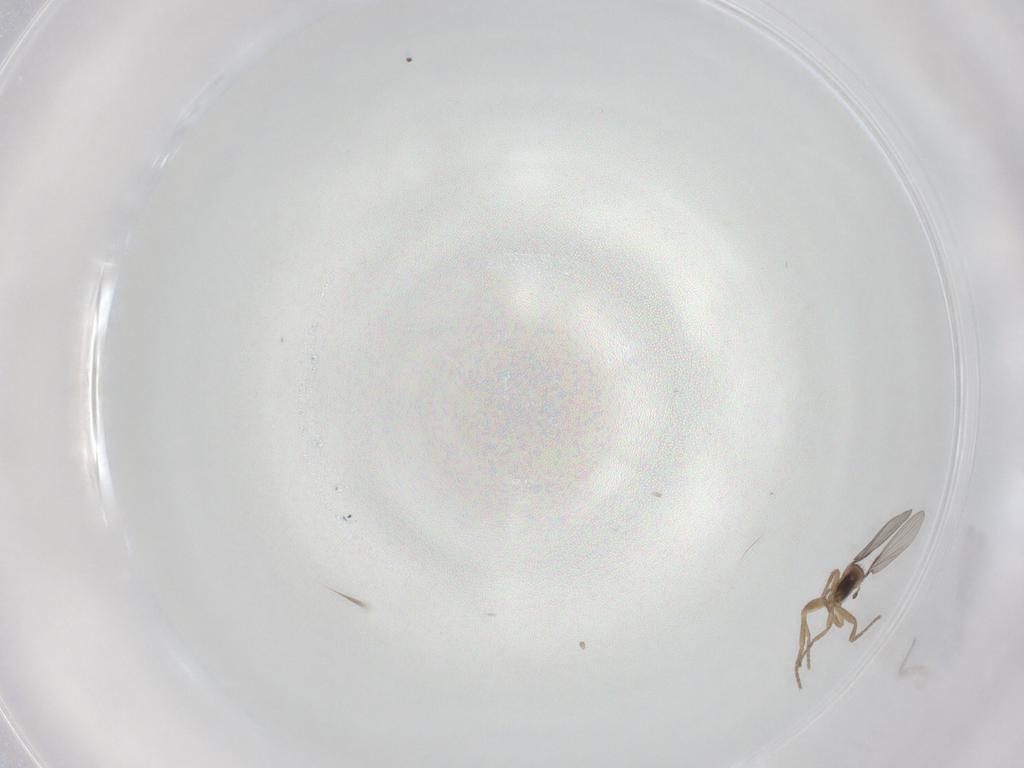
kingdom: Animalia
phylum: Arthropoda
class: Insecta
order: Diptera
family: Phoridae
